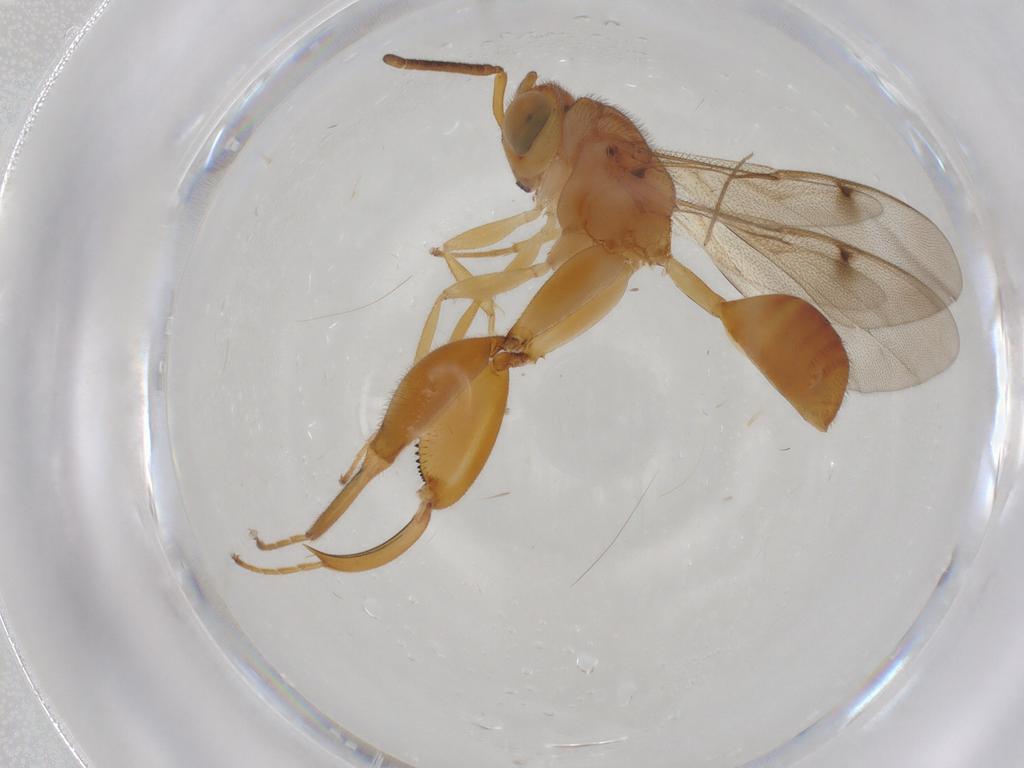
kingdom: Animalia
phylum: Arthropoda
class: Insecta
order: Hymenoptera
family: Chalcididae
